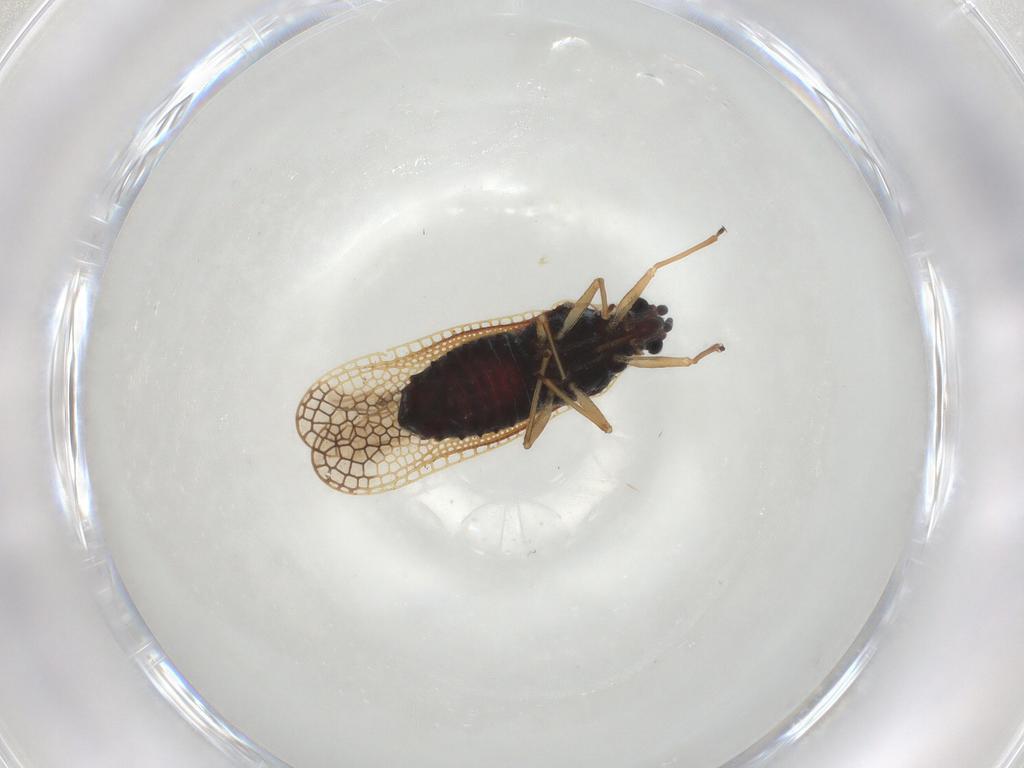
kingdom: Animalia
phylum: Arthropoda
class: Insecta
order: Hemiptera
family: Tingidae
